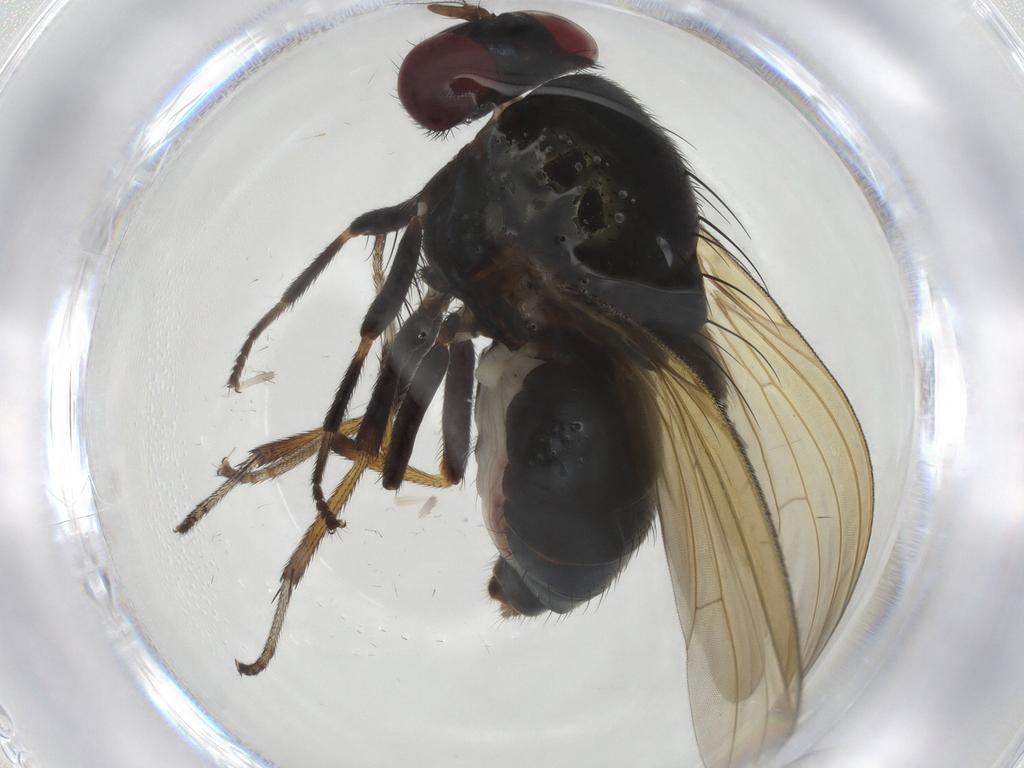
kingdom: Animalia
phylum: Arthropoda
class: Insecta
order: Diptera
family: Lauxaniidae
